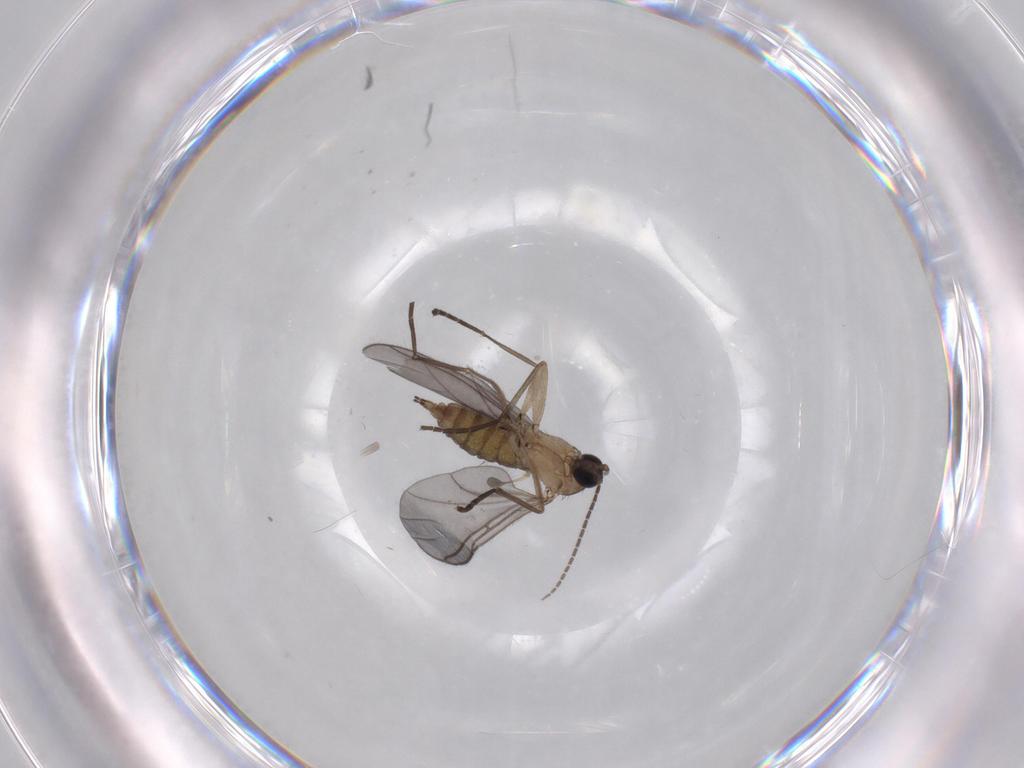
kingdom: Animalia
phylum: Arthropoda
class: Insecta
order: Diptera
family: Sciaridae
